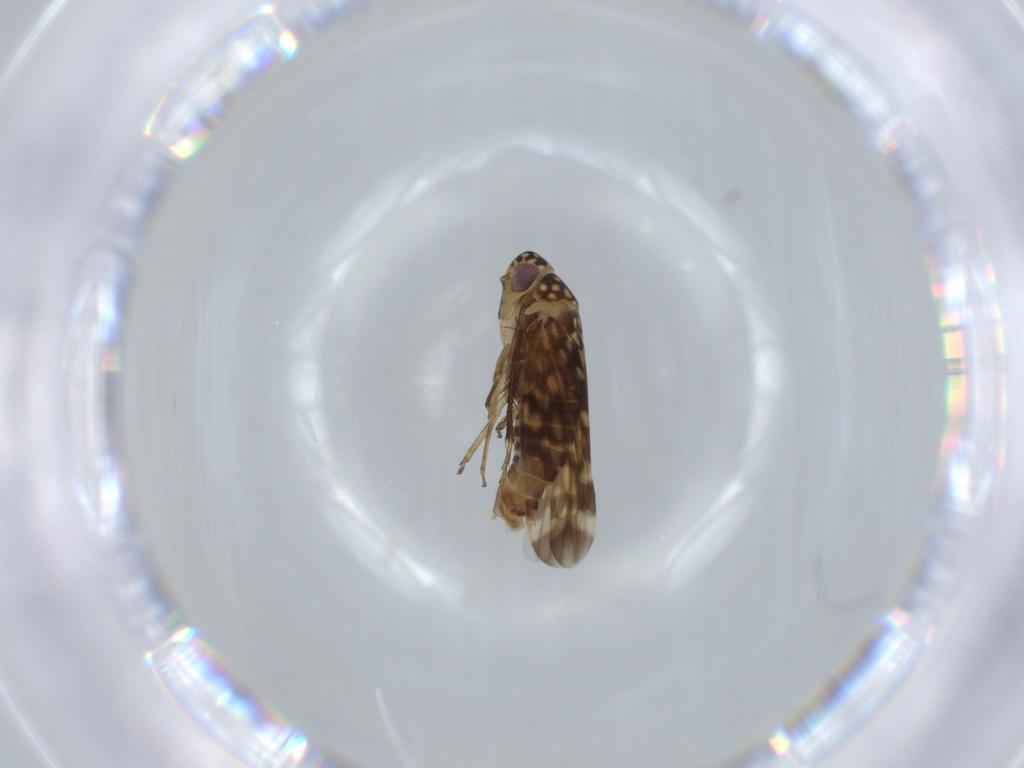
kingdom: Animalia
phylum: Arthropoda
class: Insecta
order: Hemiptera
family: Cicadellidae
